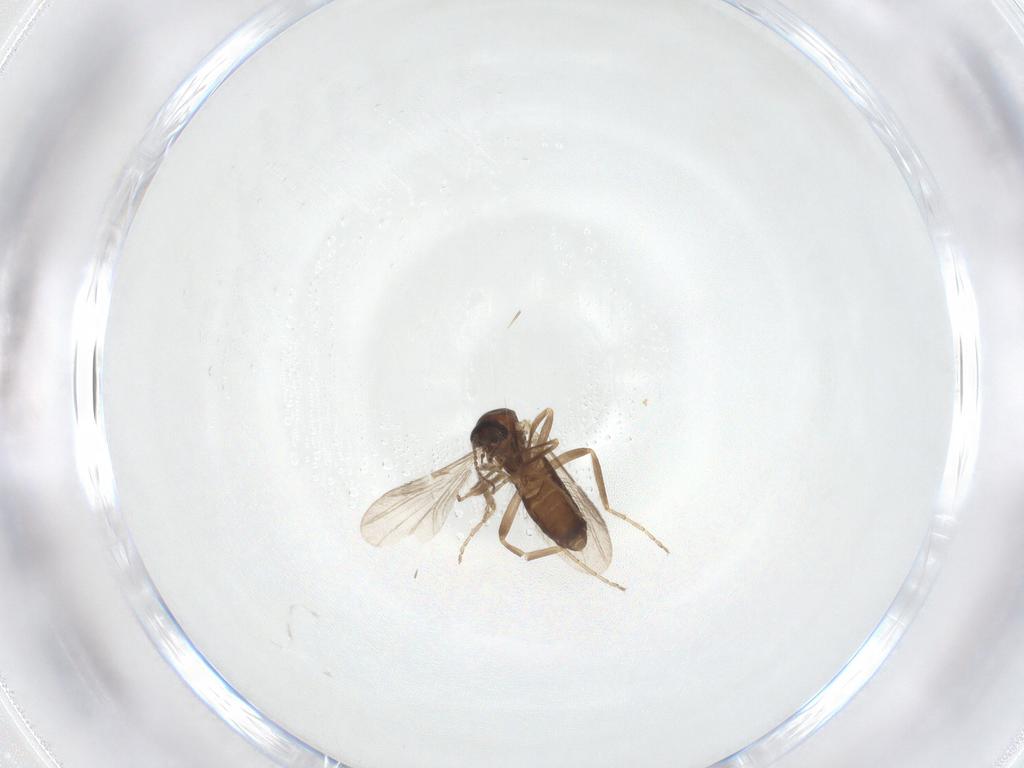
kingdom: Animalia
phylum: Arthropoda
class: Insecta
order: Diptera
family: Ceratopogonidae
